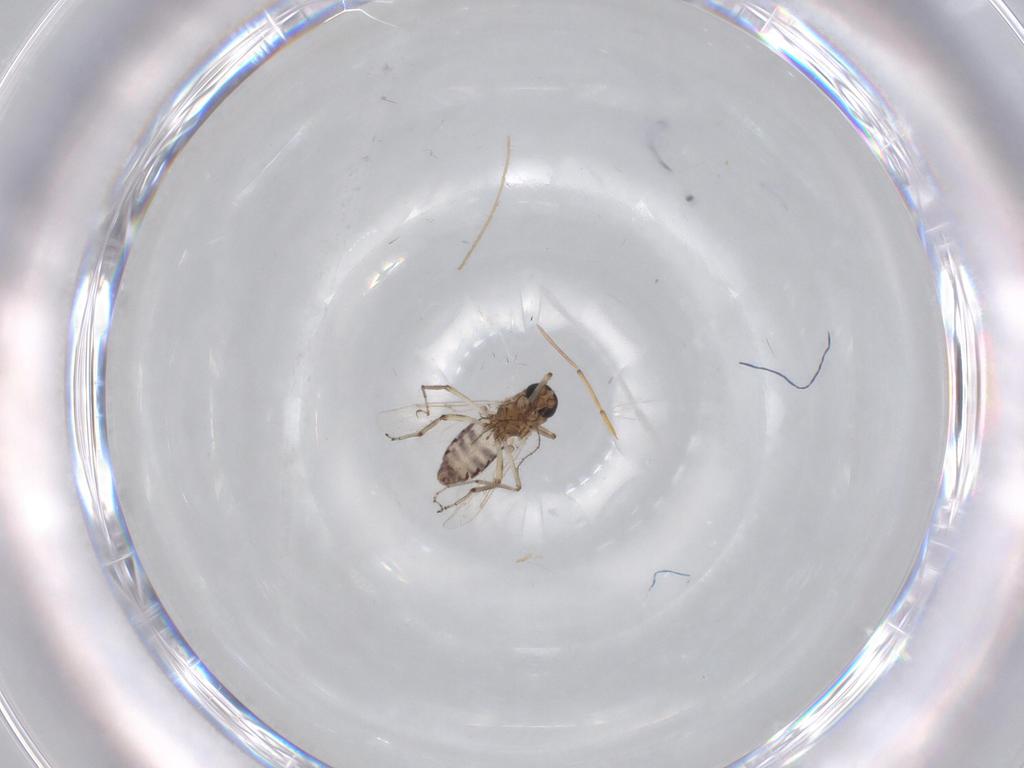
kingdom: Animalia
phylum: Arthropoda
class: Insecta
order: Diptera
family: Ceratopogonidae
